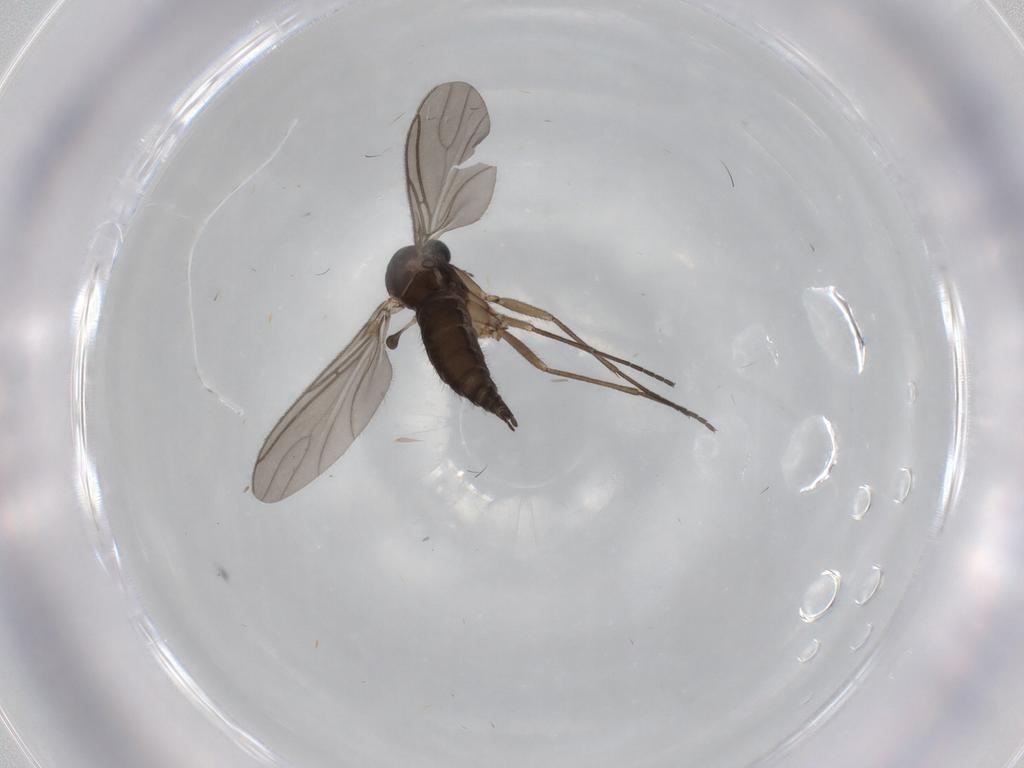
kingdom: Animalia
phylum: Arthropoda
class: Insecta
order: Diptera
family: Sciaridae
